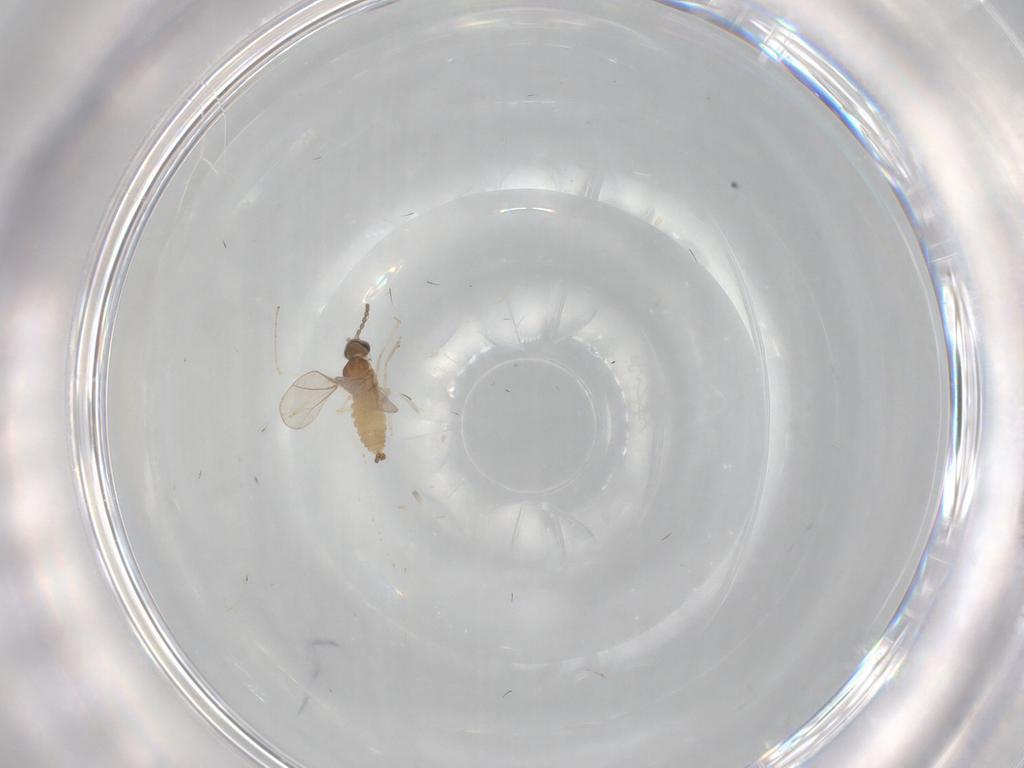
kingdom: Animalia
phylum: Arthropoda
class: Insecta
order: Diptera
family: Cecidomyiidae
